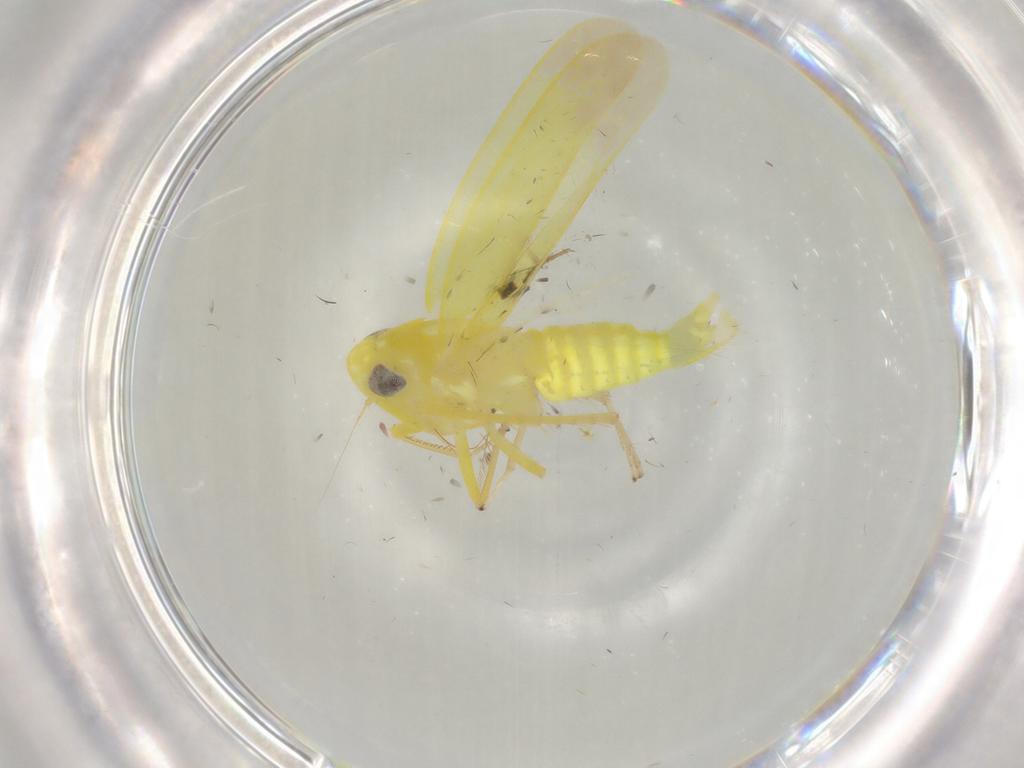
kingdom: Animalia
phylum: Arthropoda
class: Insecta
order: Hemiptera
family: Cicadellidae
